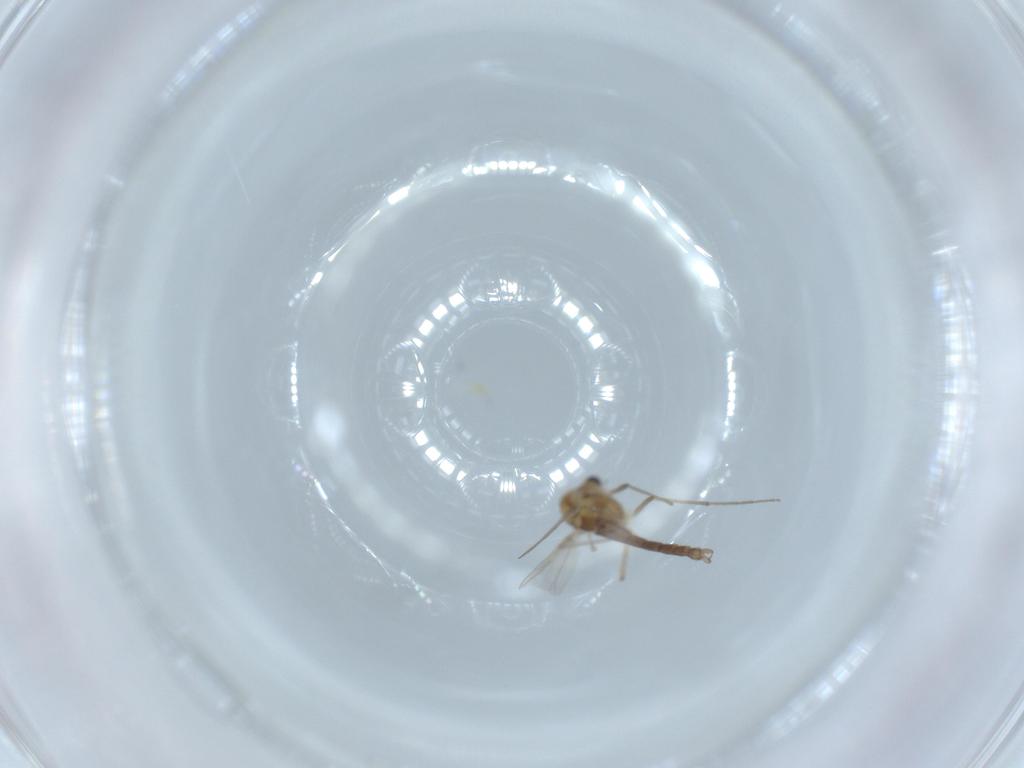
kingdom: Animalia
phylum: Arthropoda
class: Insecta
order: Diptera
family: Chironomidae
